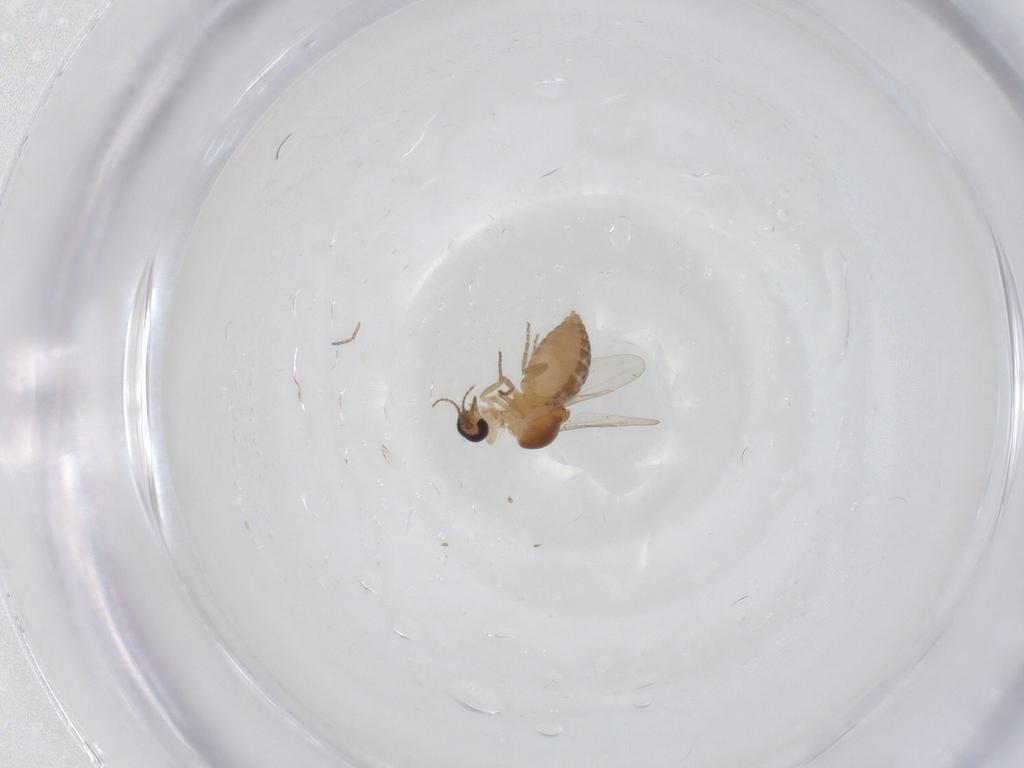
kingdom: Animalia
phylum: Arthropoda
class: Insecta
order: Diptera
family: Ceratopogonidae
